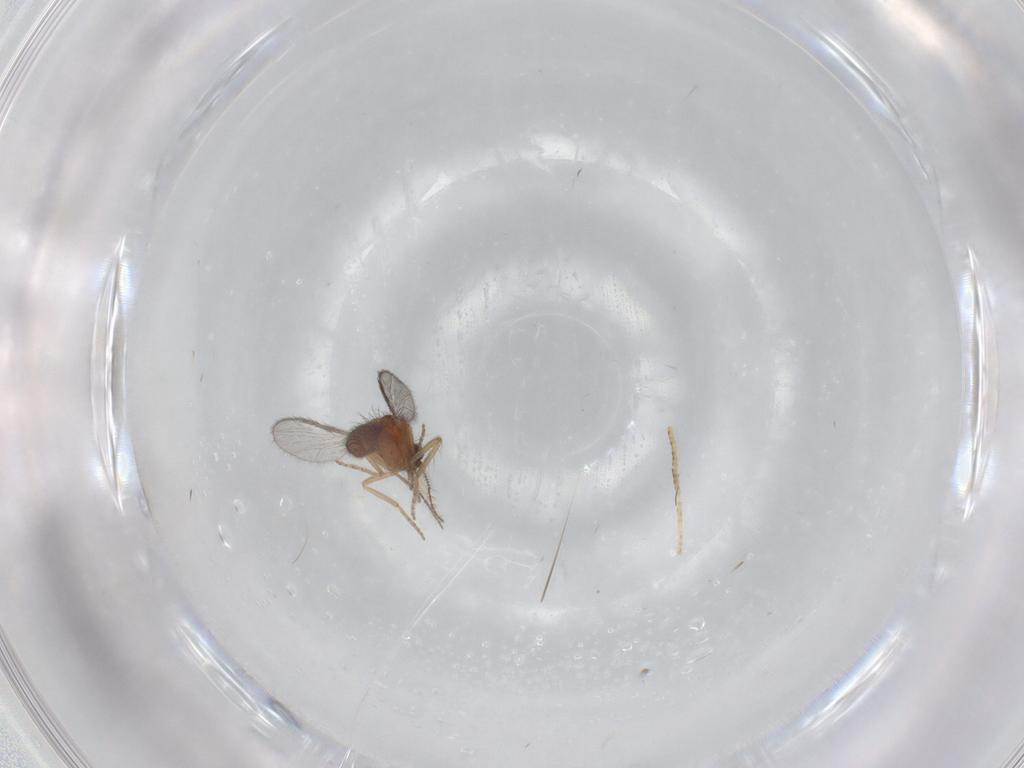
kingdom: Animalia
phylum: Arthropoda
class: Insecta
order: Diptera
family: Ceratopogonidae
